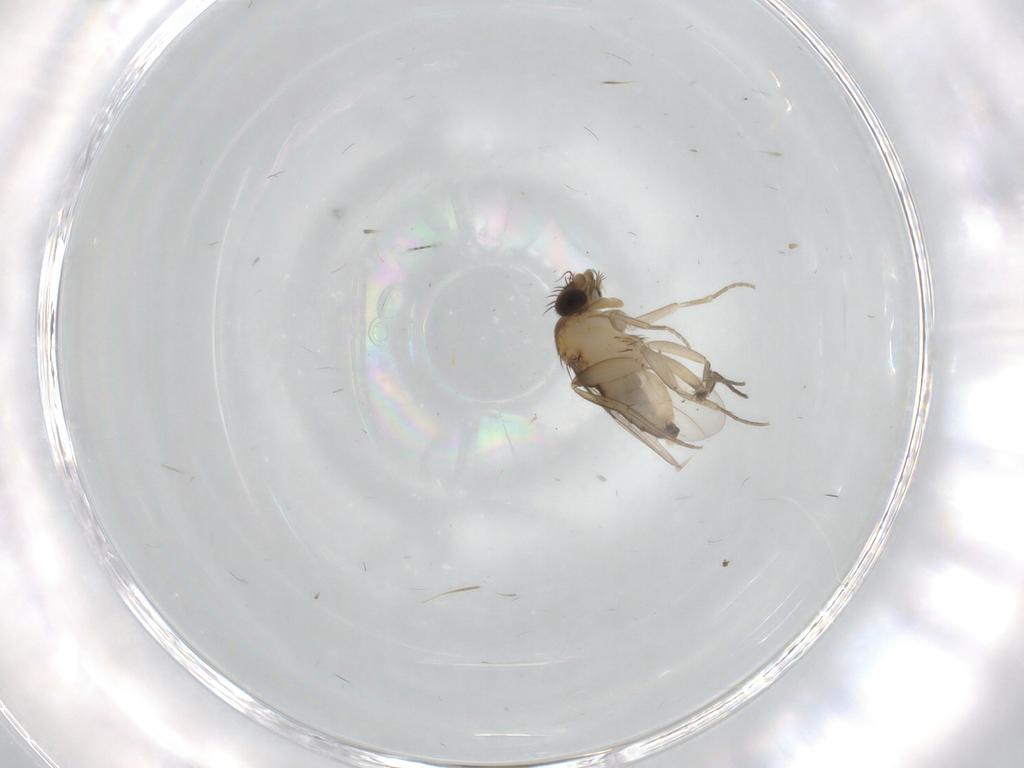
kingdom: Animalia
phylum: Arthropoda
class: Insecta
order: Diptera
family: Phoridae
